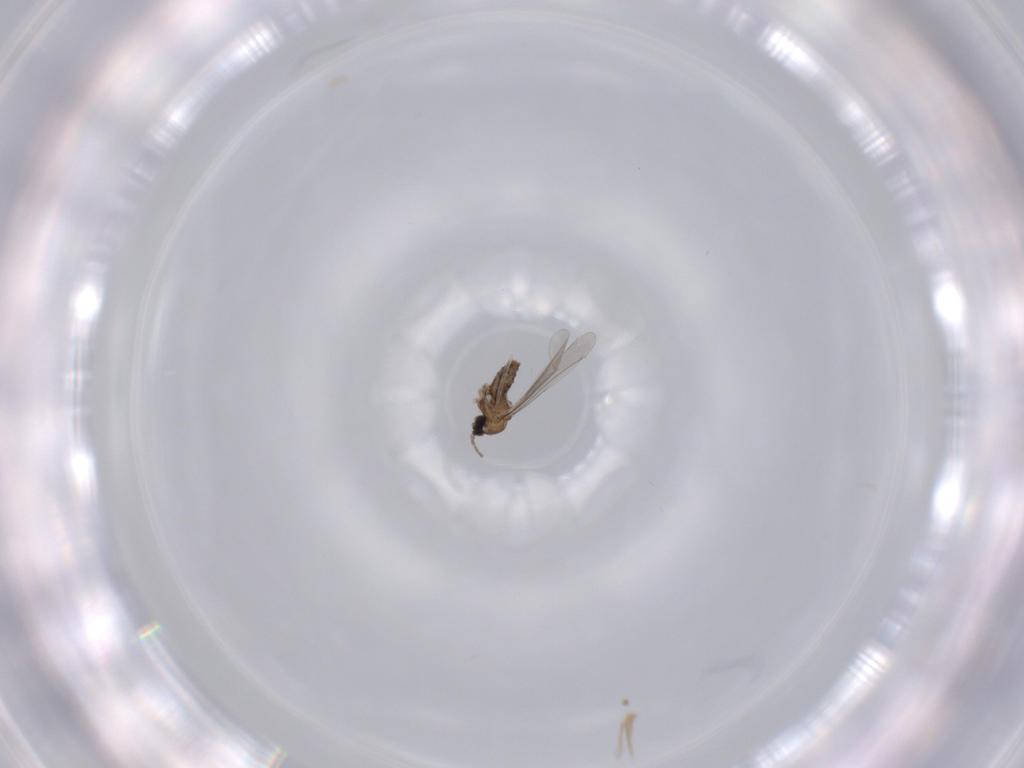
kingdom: Animalia
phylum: Arthropoda
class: Insecta
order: Diptera
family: Cecidomyiidae
